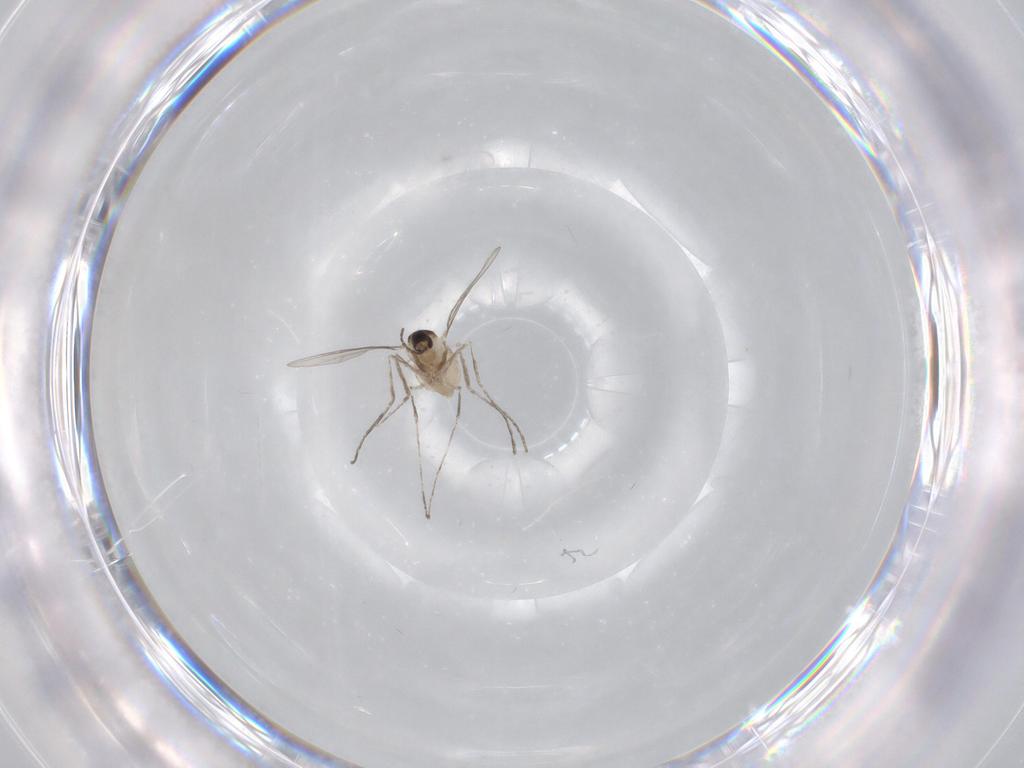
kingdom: Animalia
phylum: Arthropoda
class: Insecta
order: Diptera
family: Cecidomyiidae
